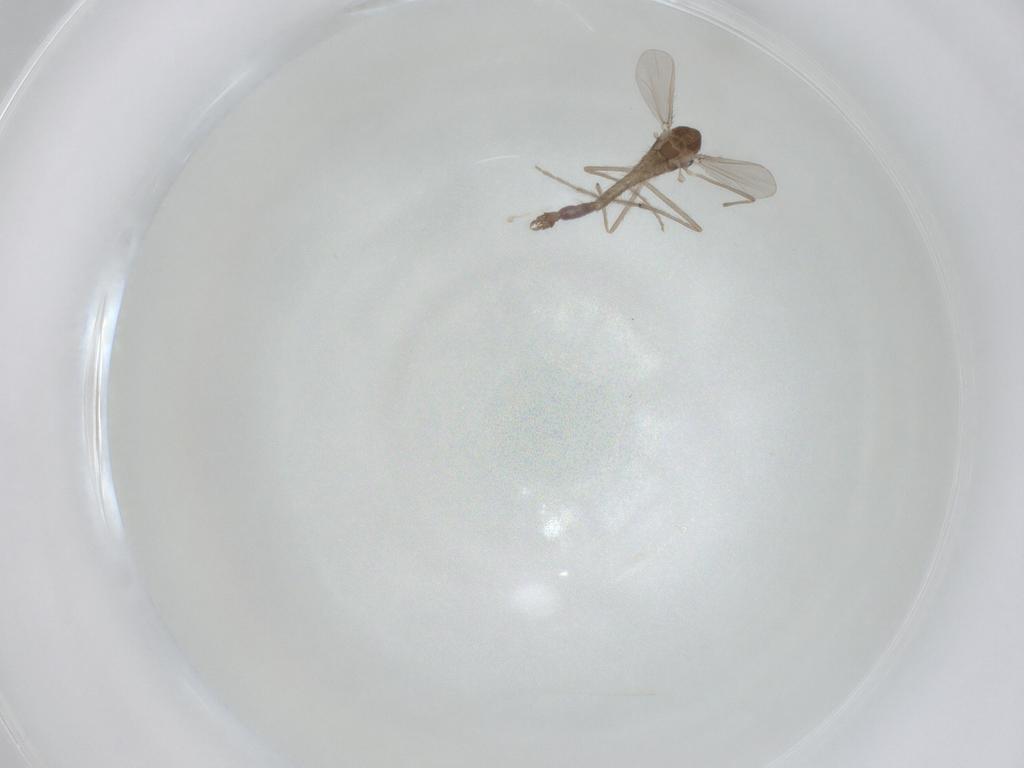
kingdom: Animalia
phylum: Arthropoda
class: Insecta
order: Diptera
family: Chironomidae
